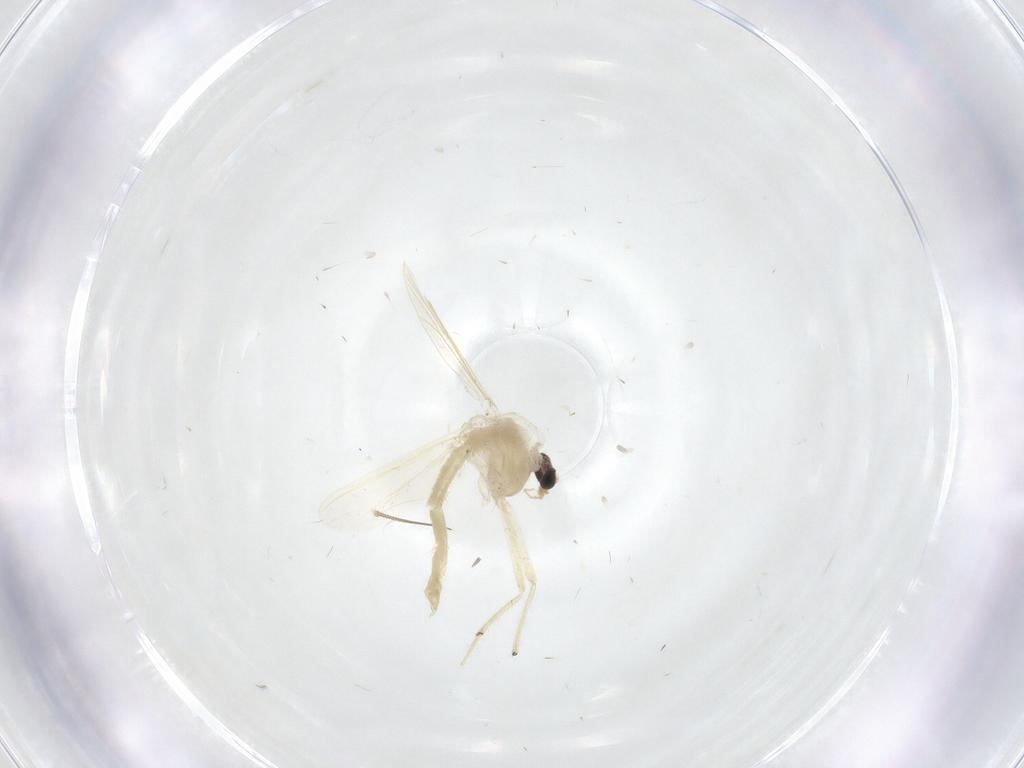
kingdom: Animalia
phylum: Arthropoda
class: Insecta
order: Diptera
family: Chironomidae
